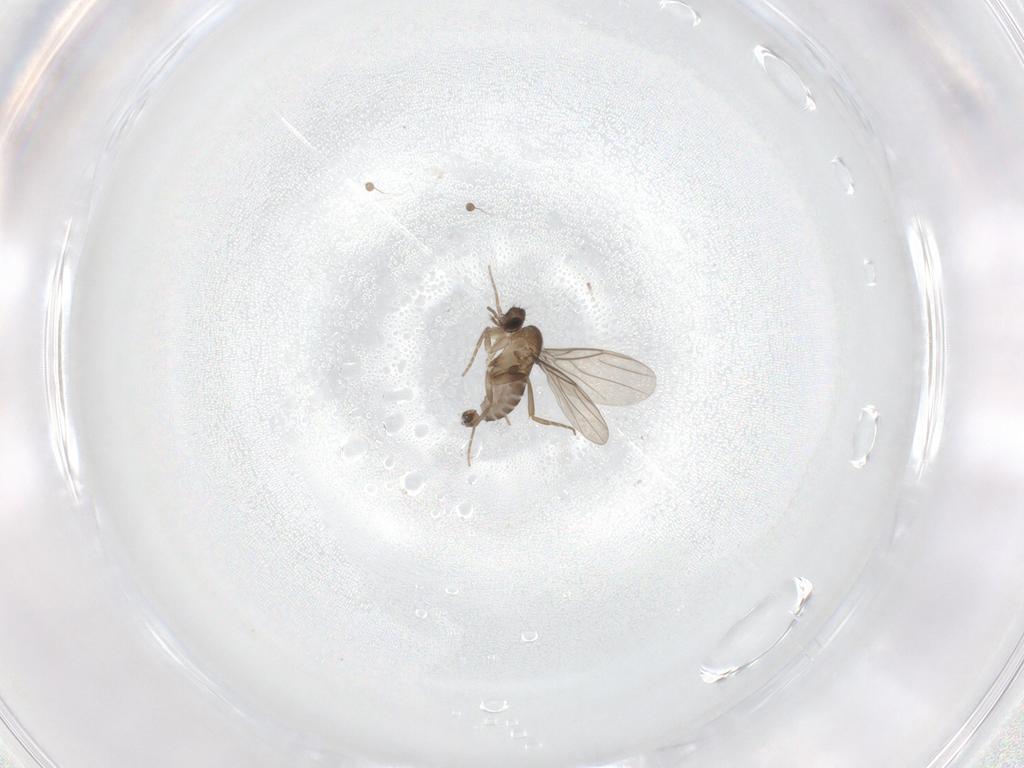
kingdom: Animalia
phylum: Arthropoda
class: Insecta
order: Diptera
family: Phoridae
